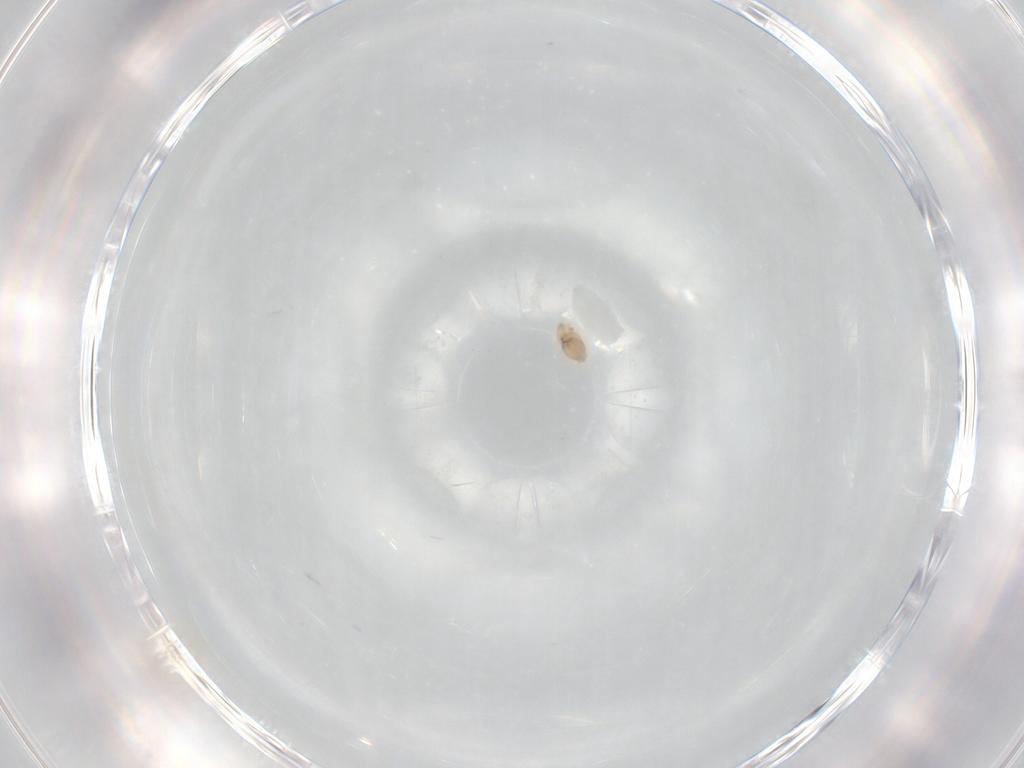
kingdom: Animalia
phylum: Arthropoda
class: Insecta
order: Hemiptera
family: Aleyrodidae
